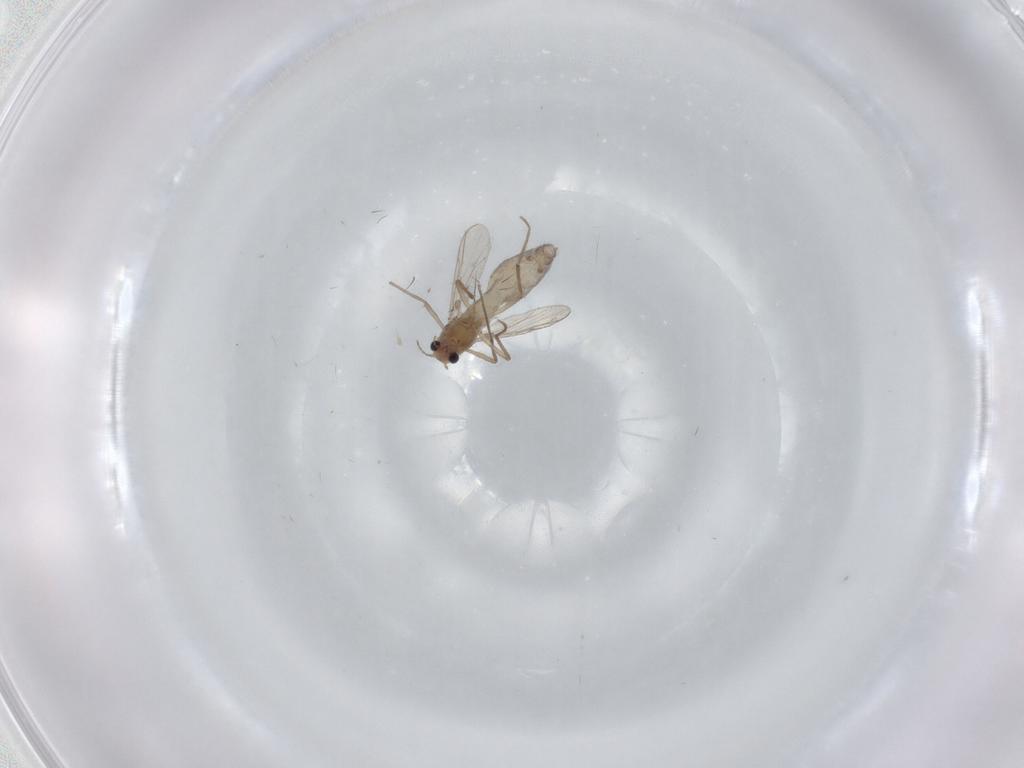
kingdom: Animalia
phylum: Arthropoda
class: Insecta
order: Diptera
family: Chironomidae
